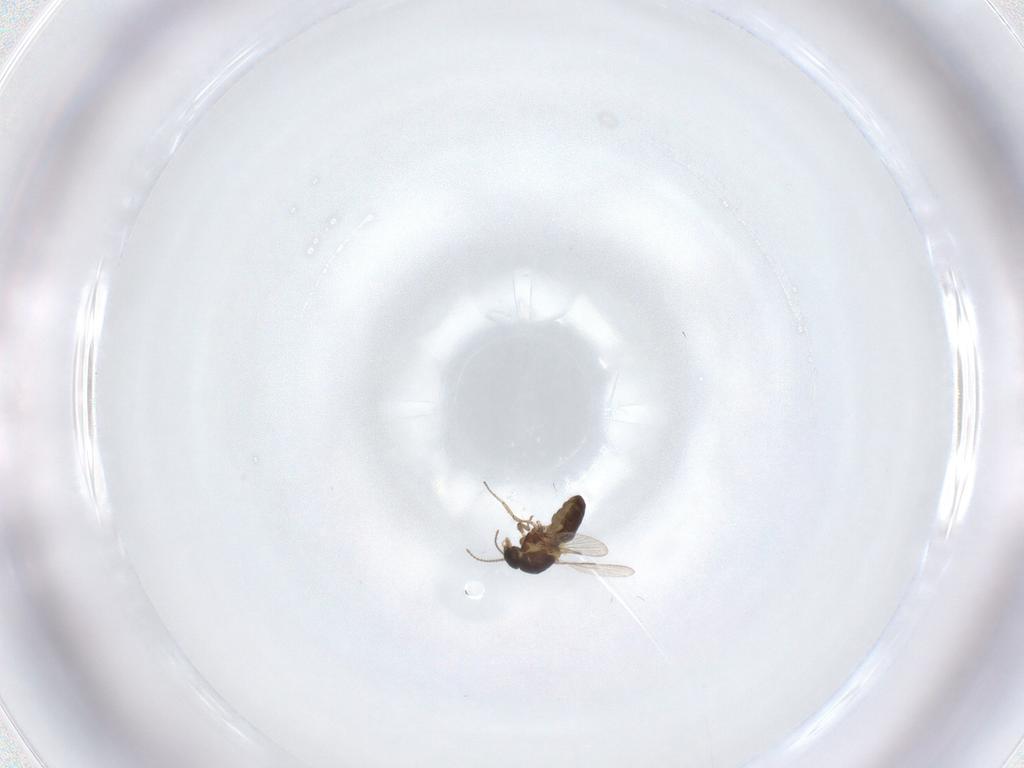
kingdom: Animalia
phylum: Arthropoda
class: Insecta
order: Diptera
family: Ceratopogonidae
